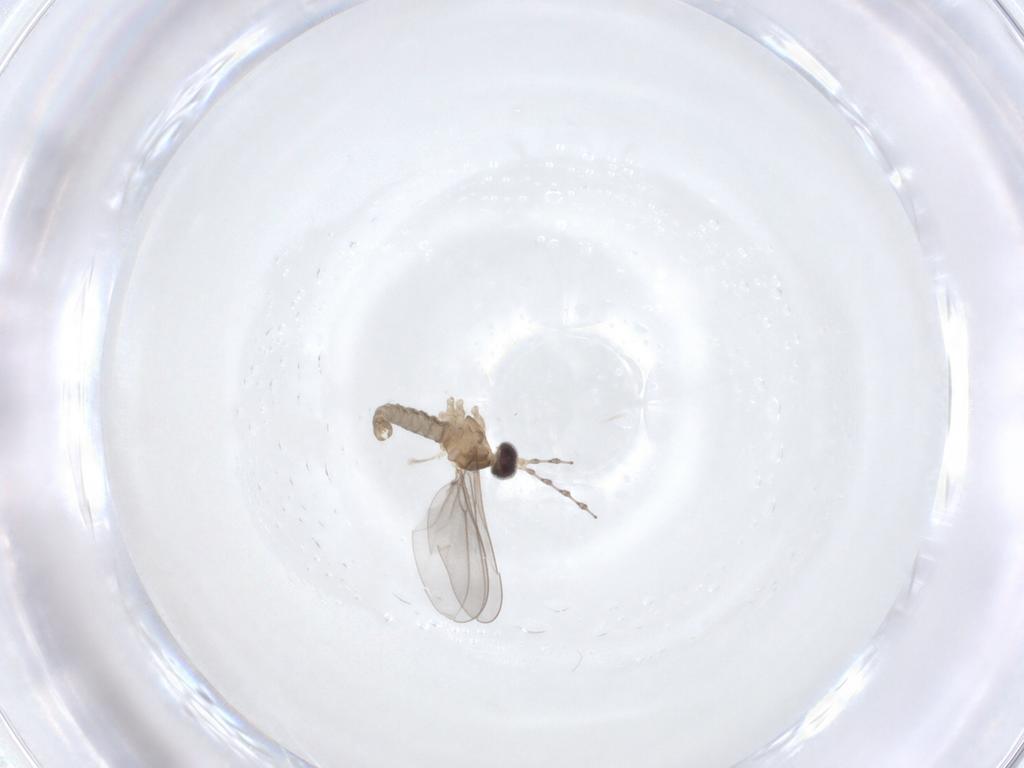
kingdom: Animalia
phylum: Arthropoda
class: Insecta
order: Diptera
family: Cecidomyiidae
